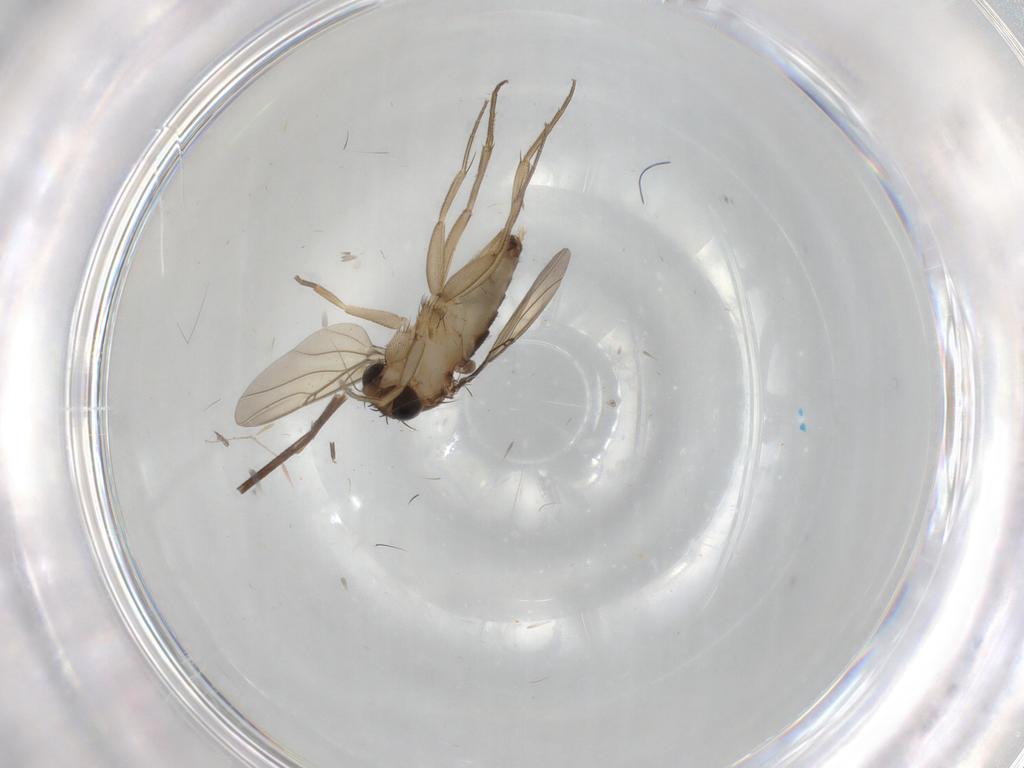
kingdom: Animalia
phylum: Arthropoda
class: Insecta
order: Diptera
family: Phoridae
